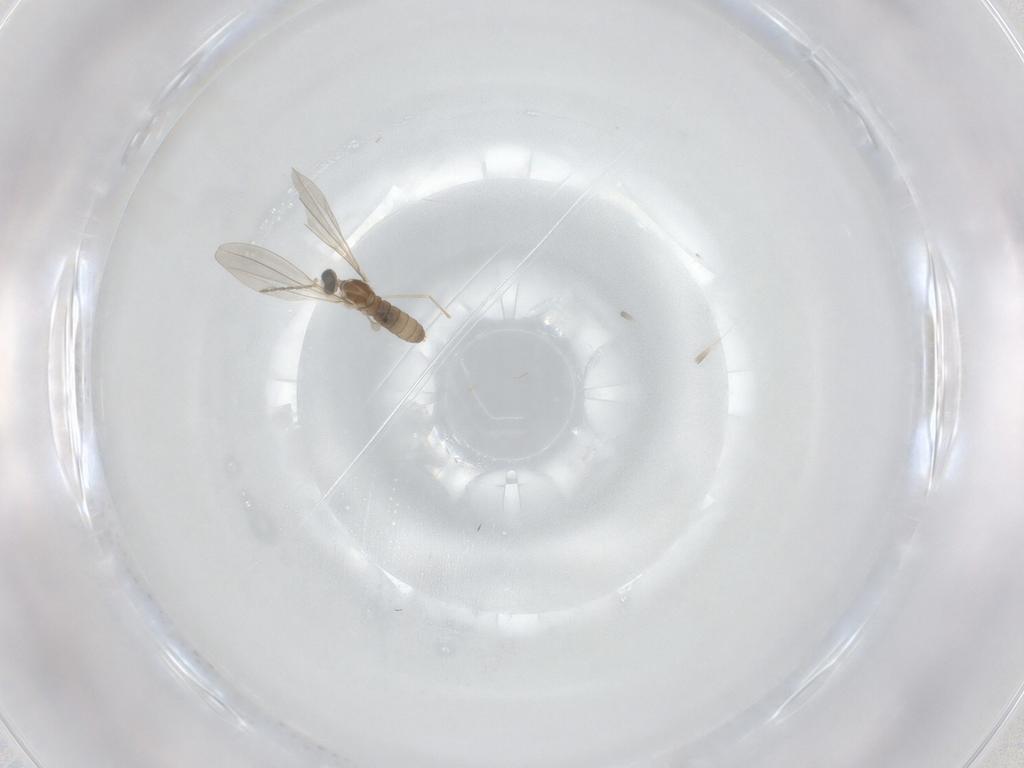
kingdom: Animalia
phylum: Arthropoda
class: Insecta
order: Diptera
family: Cecidomyiidae
